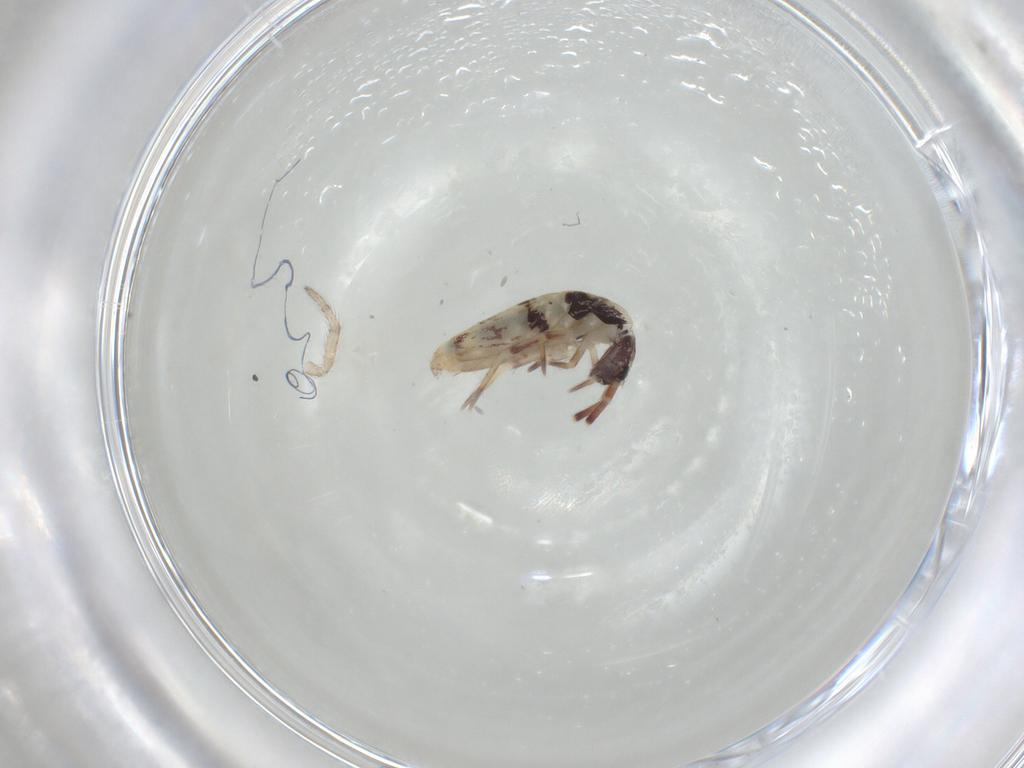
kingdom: Animalia
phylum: Arthropoda
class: Collembola
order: Entomobryomorpha
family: Entomobryidae
